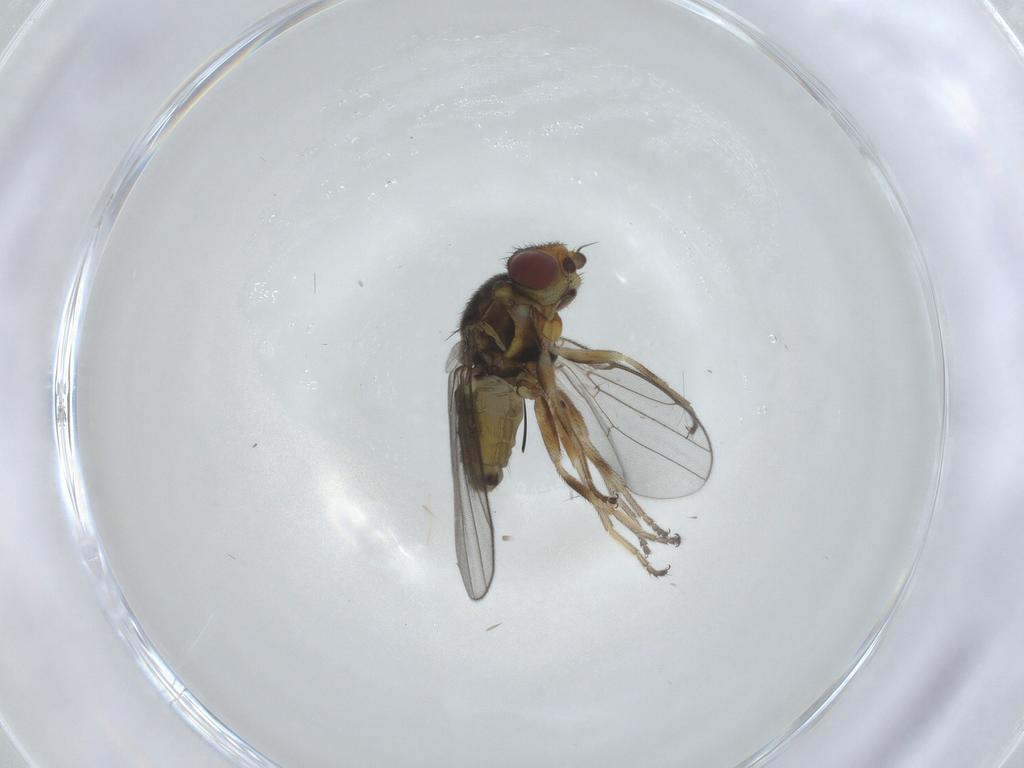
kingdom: Animalia
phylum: Arthropoda
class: Insecta
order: Diptera
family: Chloropidae
